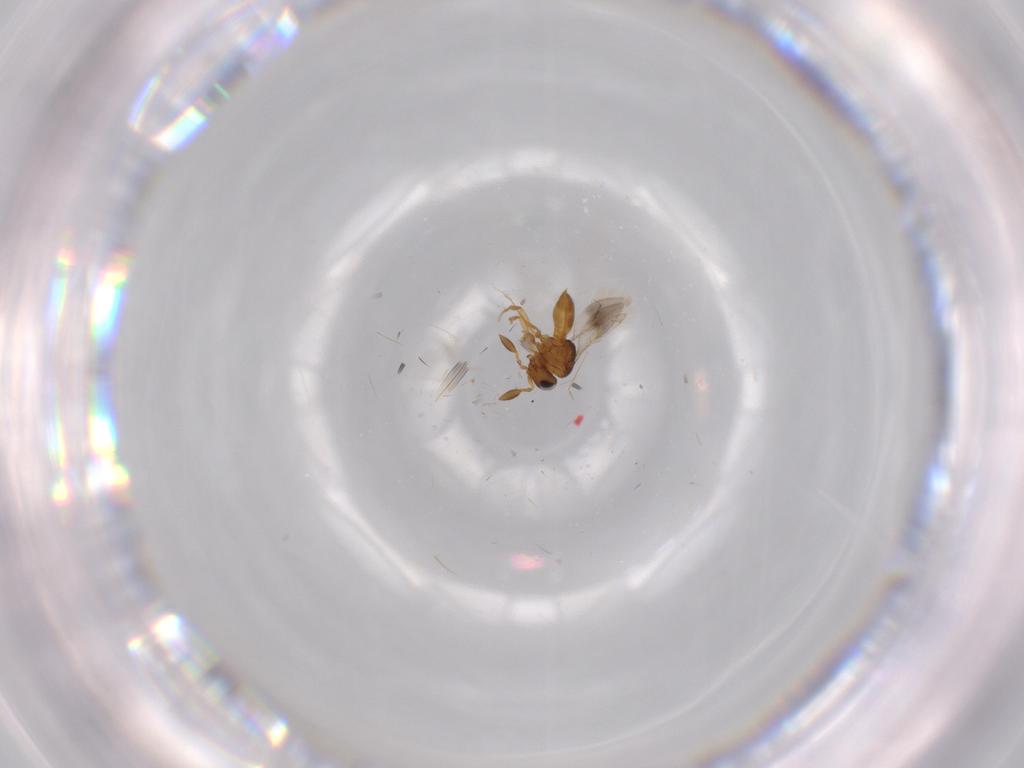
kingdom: Animalia
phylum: Arthropoda
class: Insecta
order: Hymenoptera
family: Scelionidae
